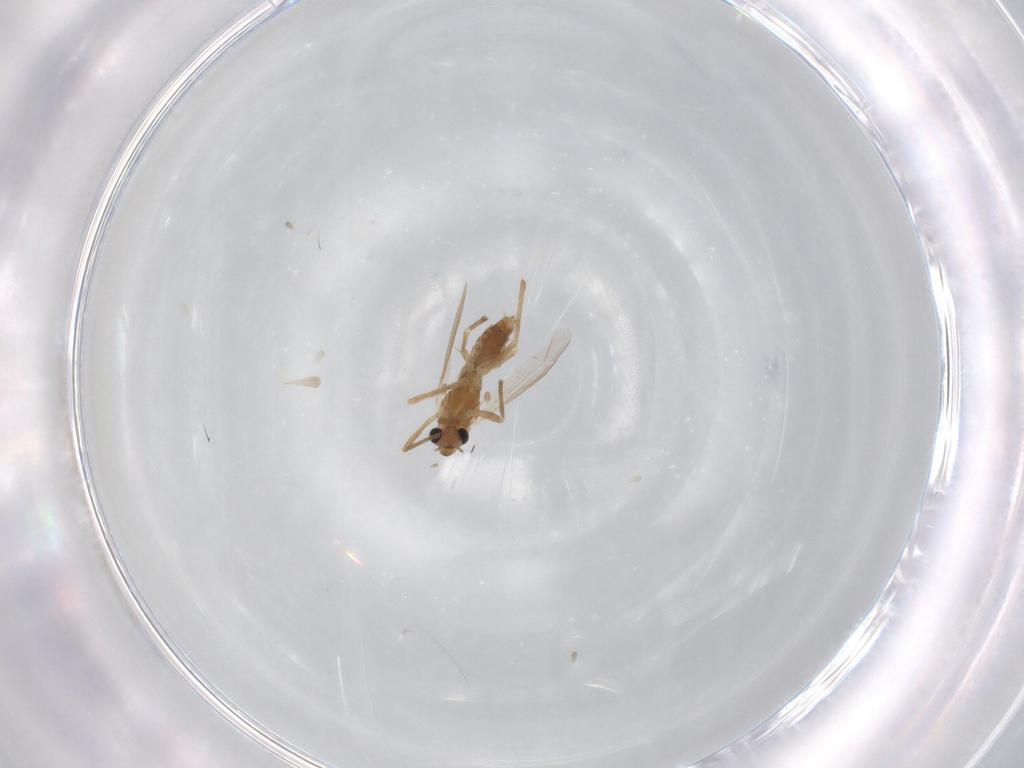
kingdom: Animalia
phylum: Arthropoda
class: Insecta
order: Diptera
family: Chironomidae
